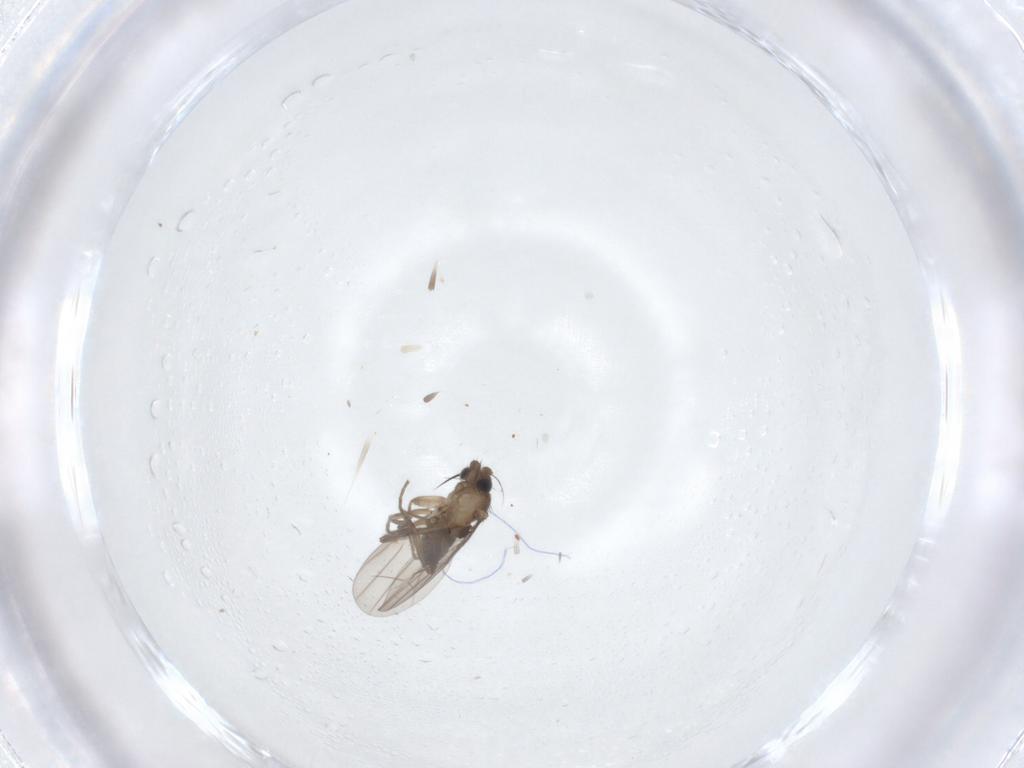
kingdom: Animalia
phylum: Arthropoda
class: Insecta
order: Diptera
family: Phoridae
